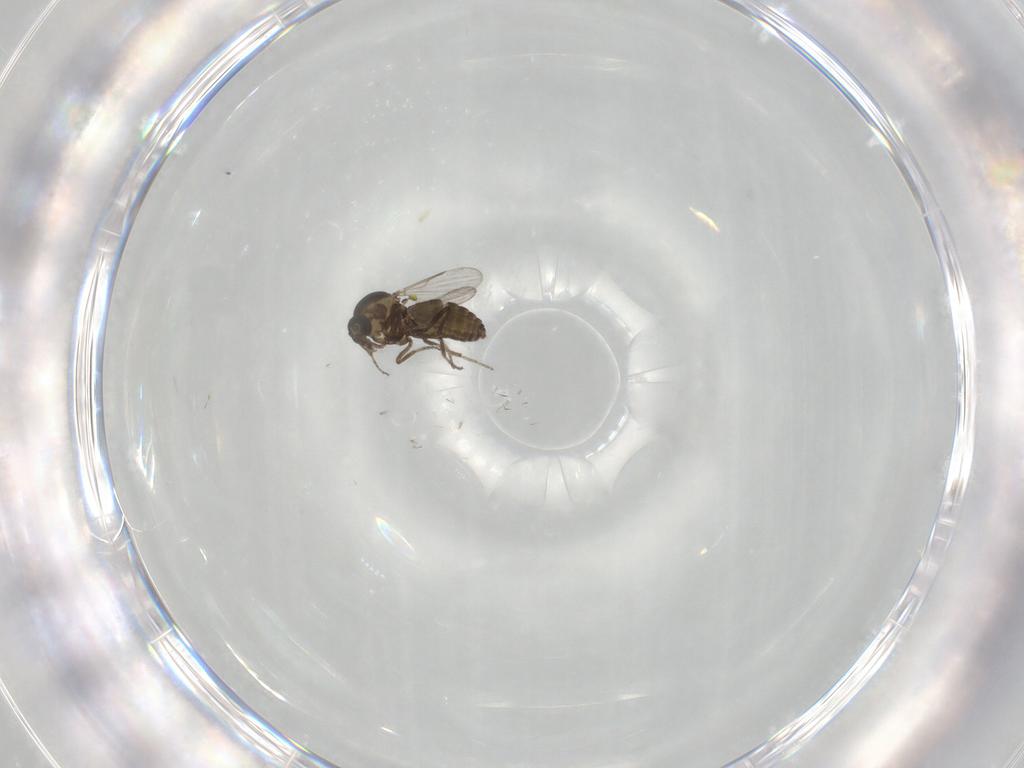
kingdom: Animalia
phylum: Arthropoda
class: Insecta
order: Diptera
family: Ceratopogonidae
